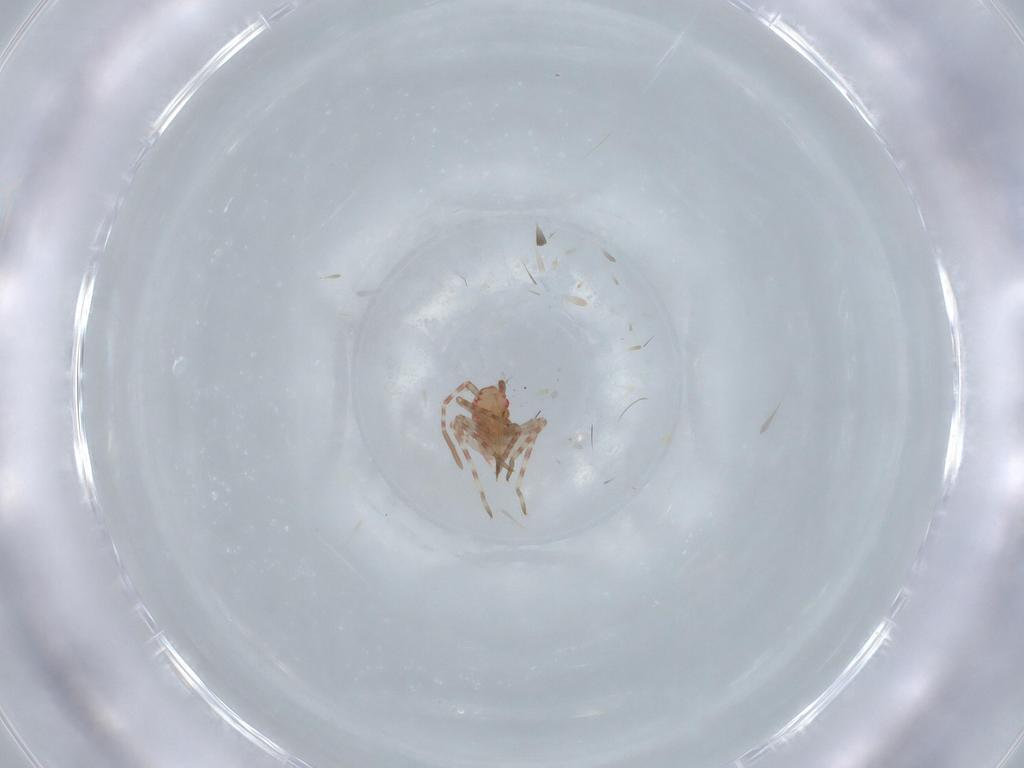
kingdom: Animalia
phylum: Arthropoda
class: Insecta
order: Hemiptera
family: Miridae
